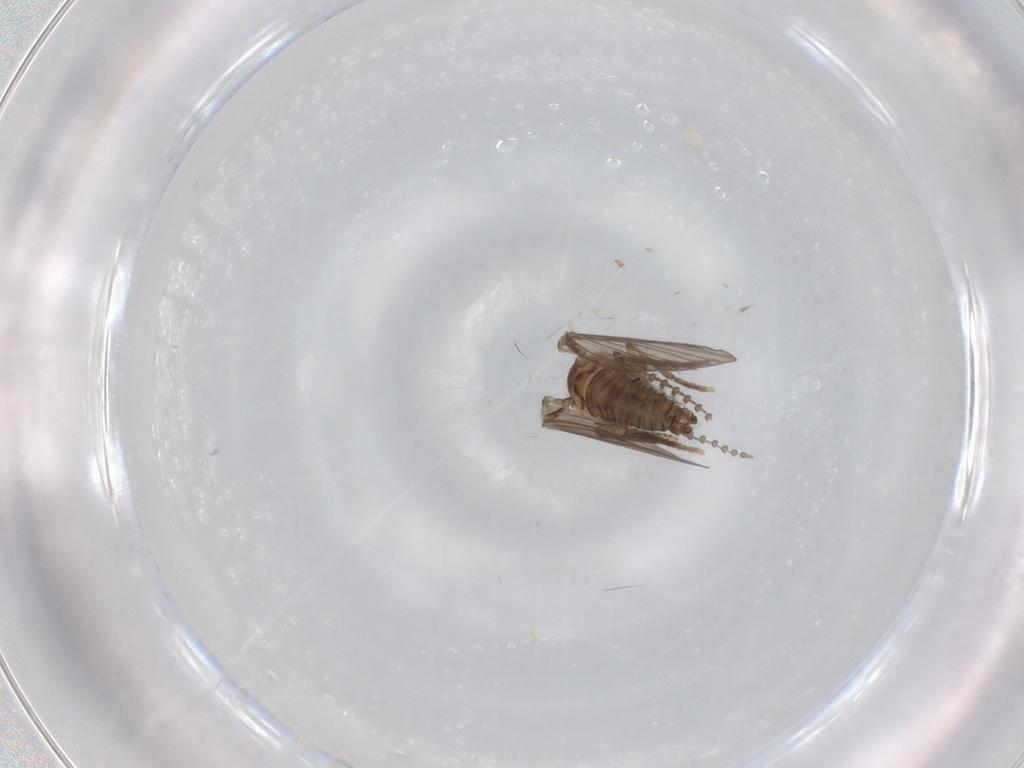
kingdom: Animalia
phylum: Arthropoda
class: Insecta
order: Diptera
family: Psychodidae
